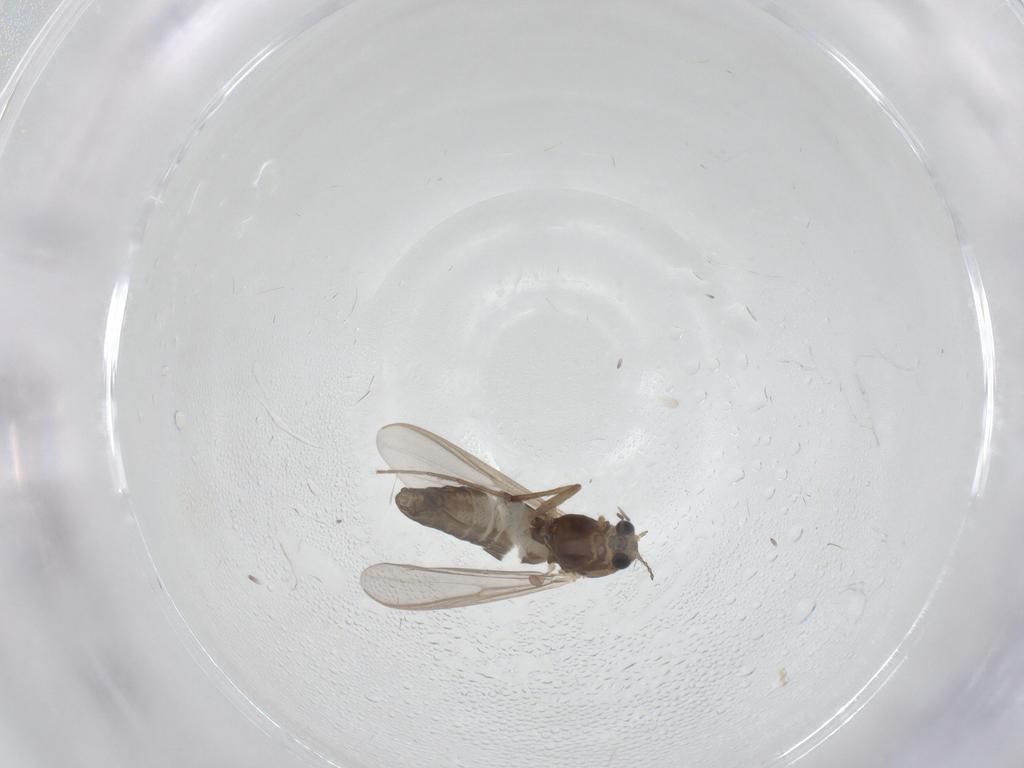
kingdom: Animalia
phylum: Arthropoda
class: Insecta
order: Diptera
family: Chironomidae
